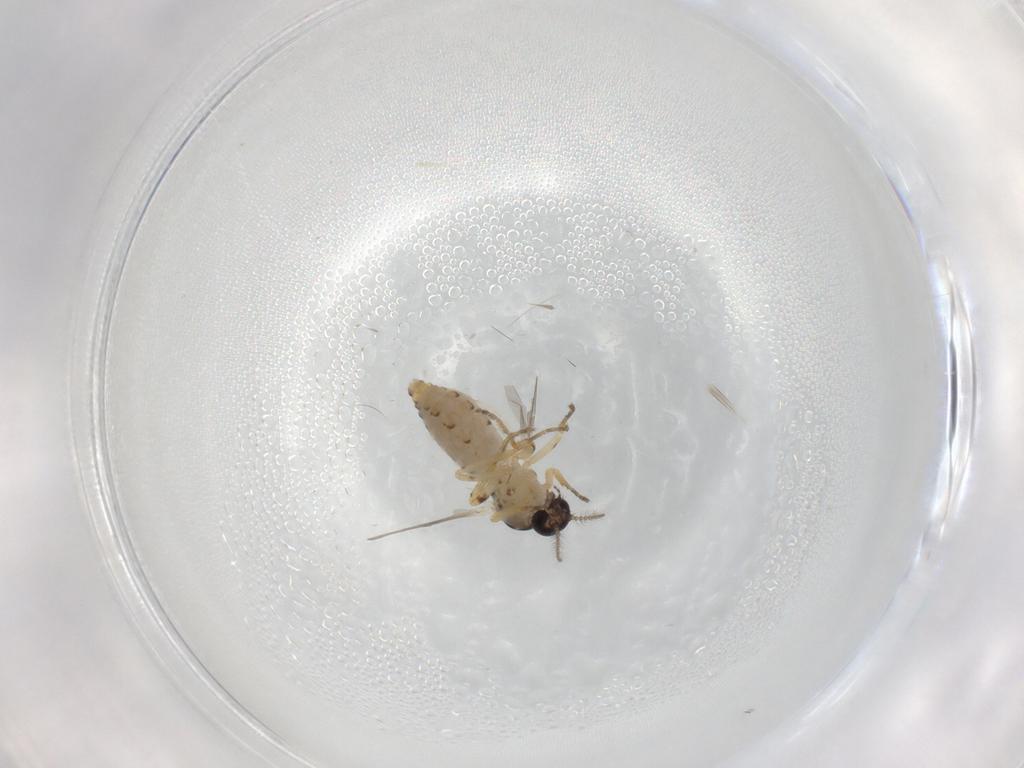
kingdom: Animalia
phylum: Arthropoda
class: Insecta
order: Diptera
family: Ceratopogonidae
